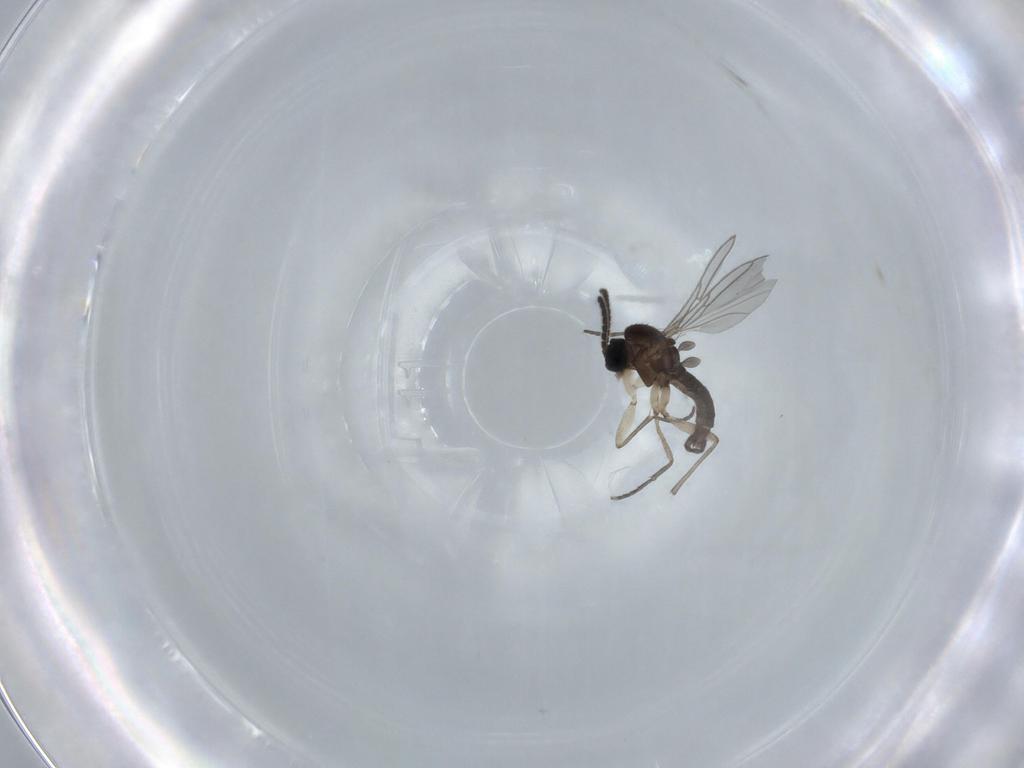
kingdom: Animalia
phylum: Arthropoda
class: Insecta
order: Diptera
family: Sciaridae
